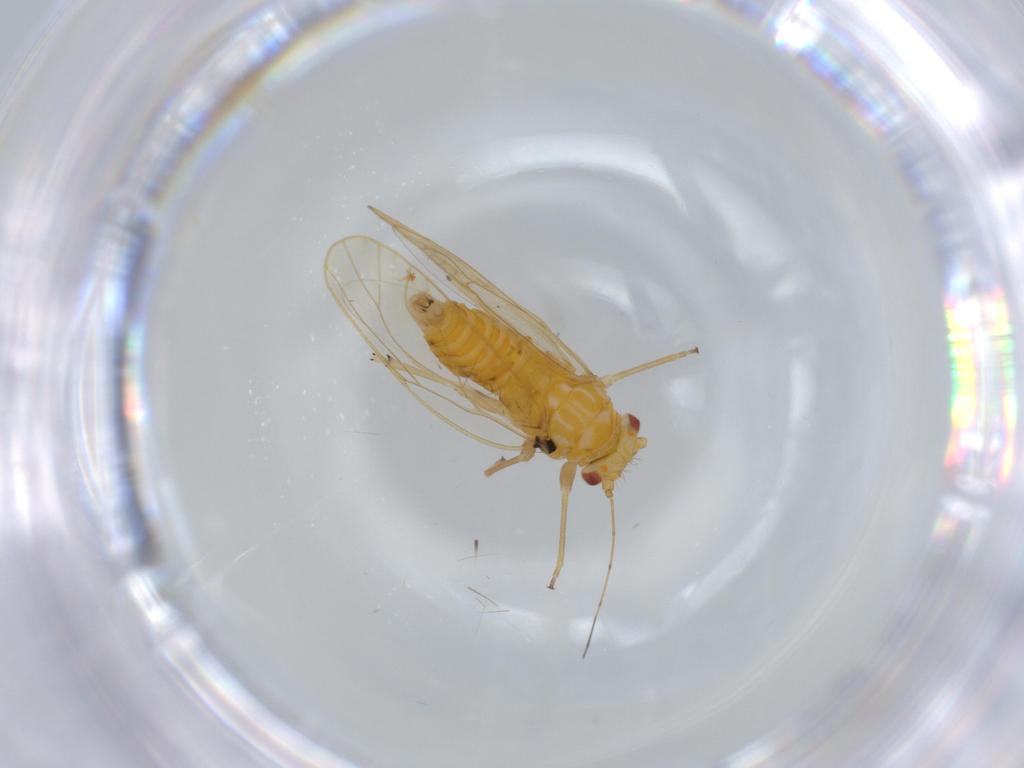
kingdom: Animalia
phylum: Arthropoda
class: Insecta
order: Hemiptera
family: Psyllidae
